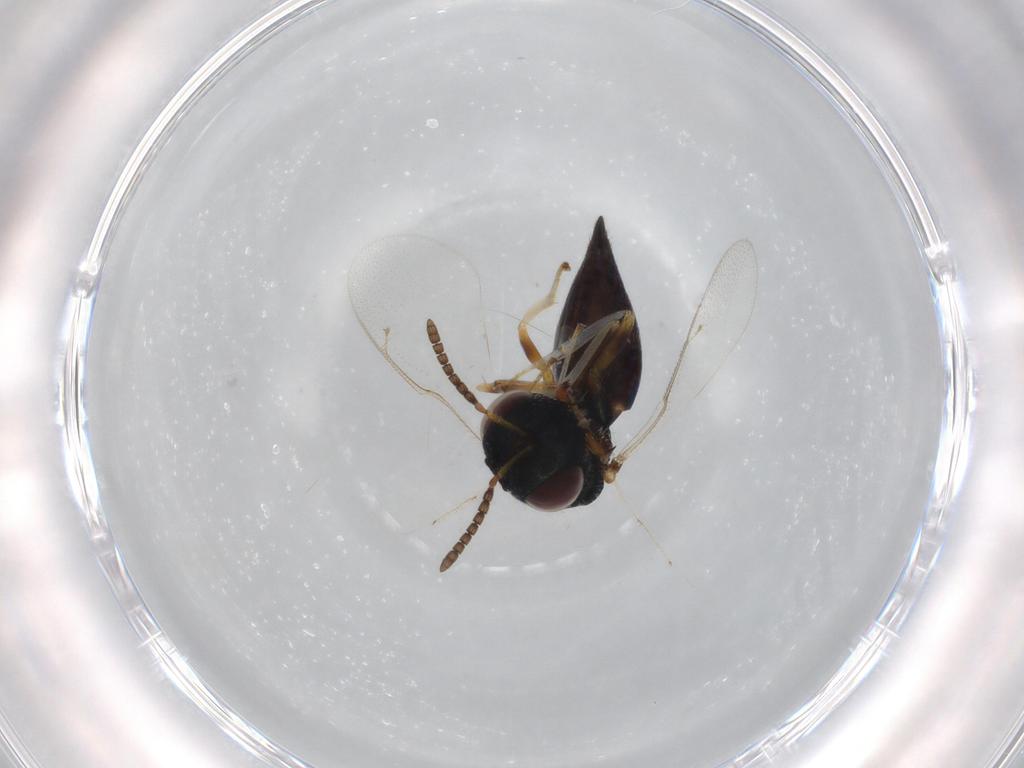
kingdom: Animalia
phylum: Arthropoda
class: Insecta
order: Hymenoptera
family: Pteromalidae
